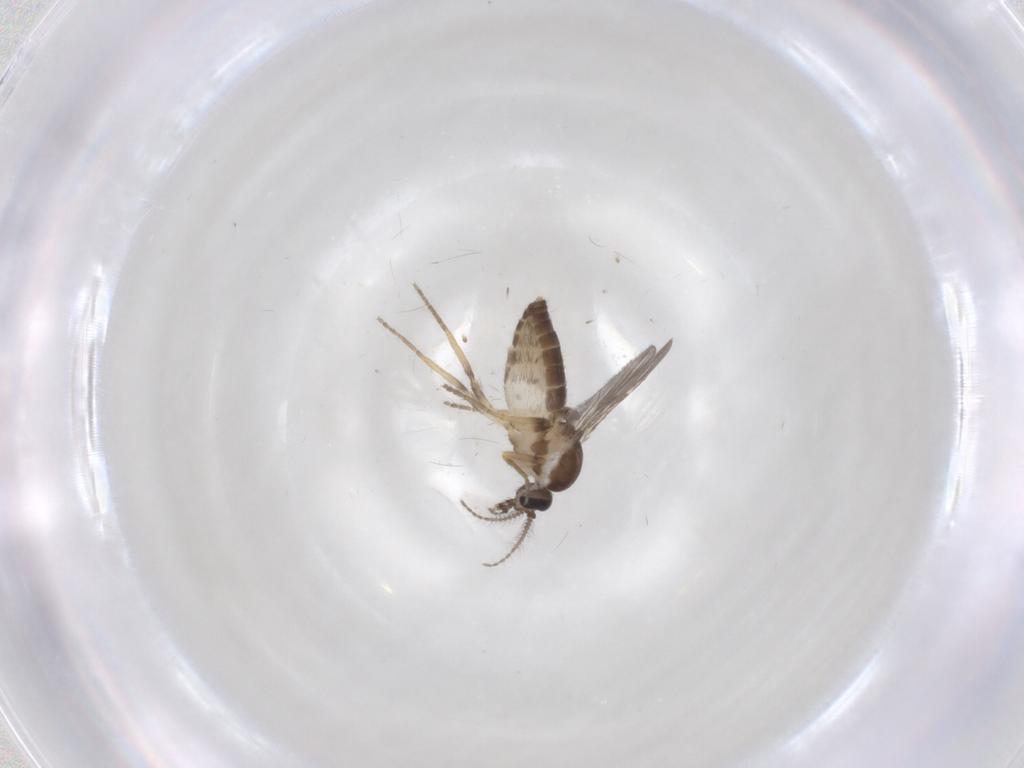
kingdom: Animalia
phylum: Arthropoda
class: Insecta
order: Diptera
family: Ceratopogonidae
